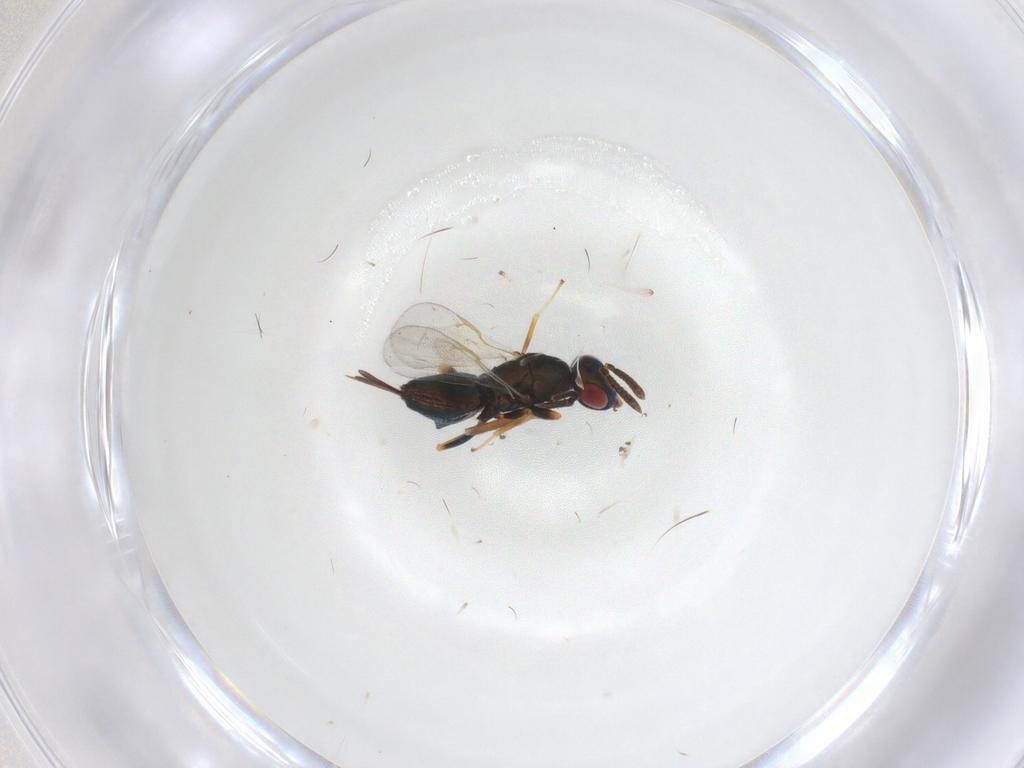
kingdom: Animalia
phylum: Arthropoda
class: Insecta
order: Hymenoptera
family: Torymidae
